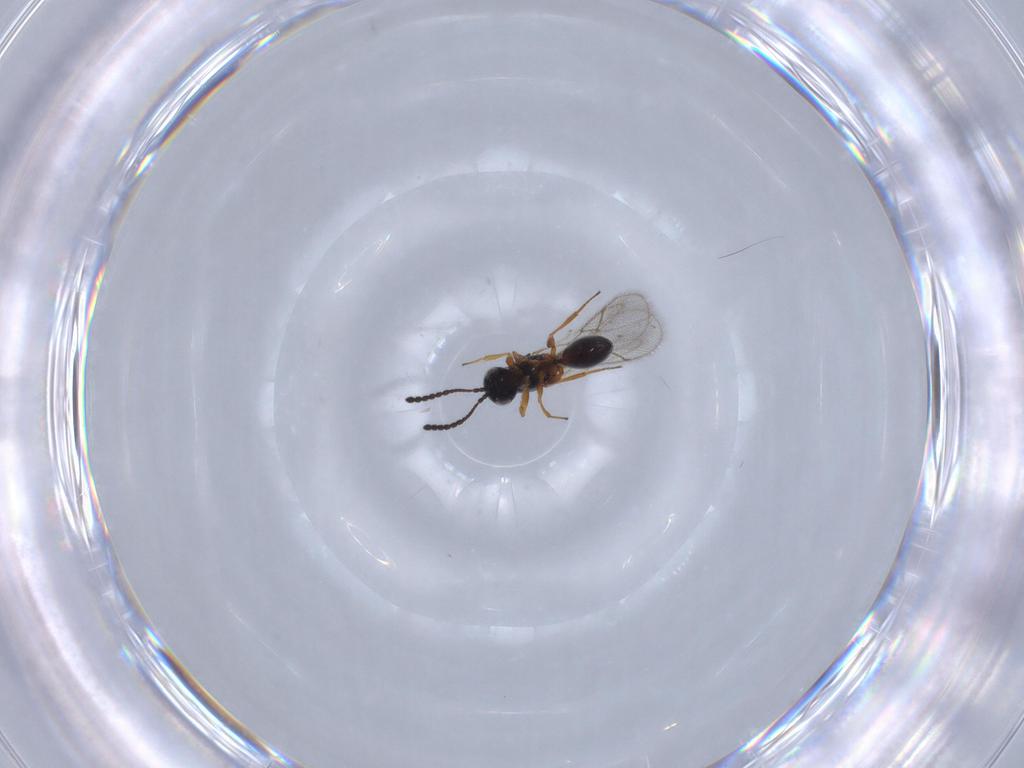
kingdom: Animalia
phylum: Arthropoda
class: Insecta
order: Hymenoptera
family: Figitidae
